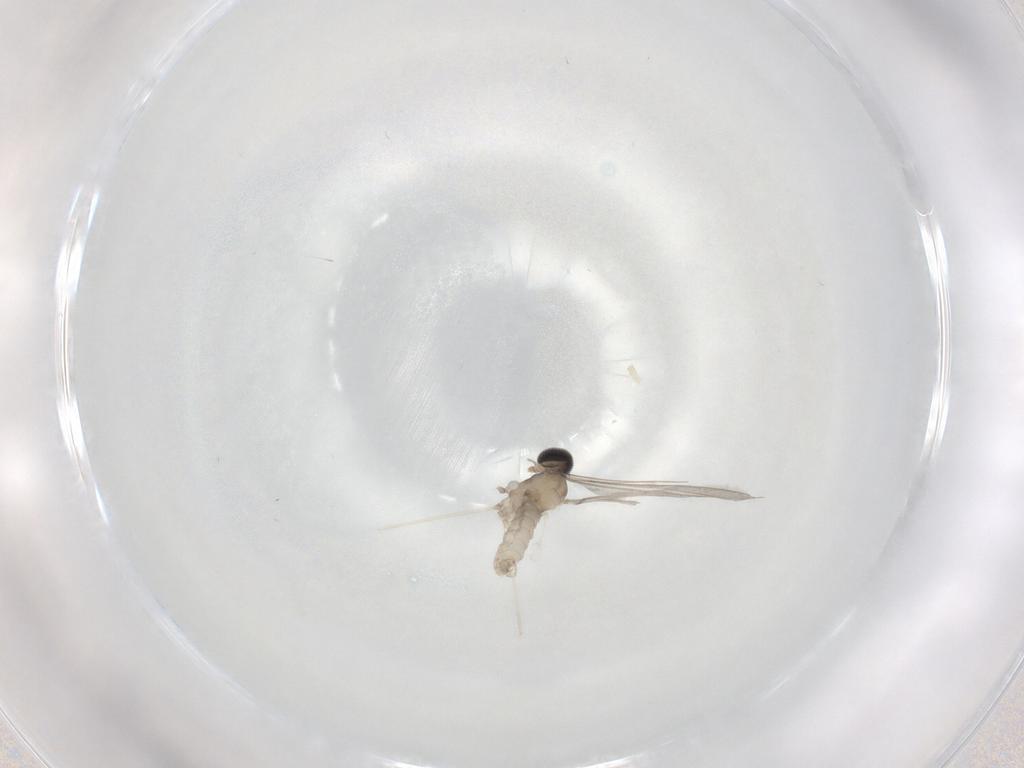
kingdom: Animalia
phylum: Arthropoda
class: Insecta
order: Diptera
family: Cecidomyiidae
